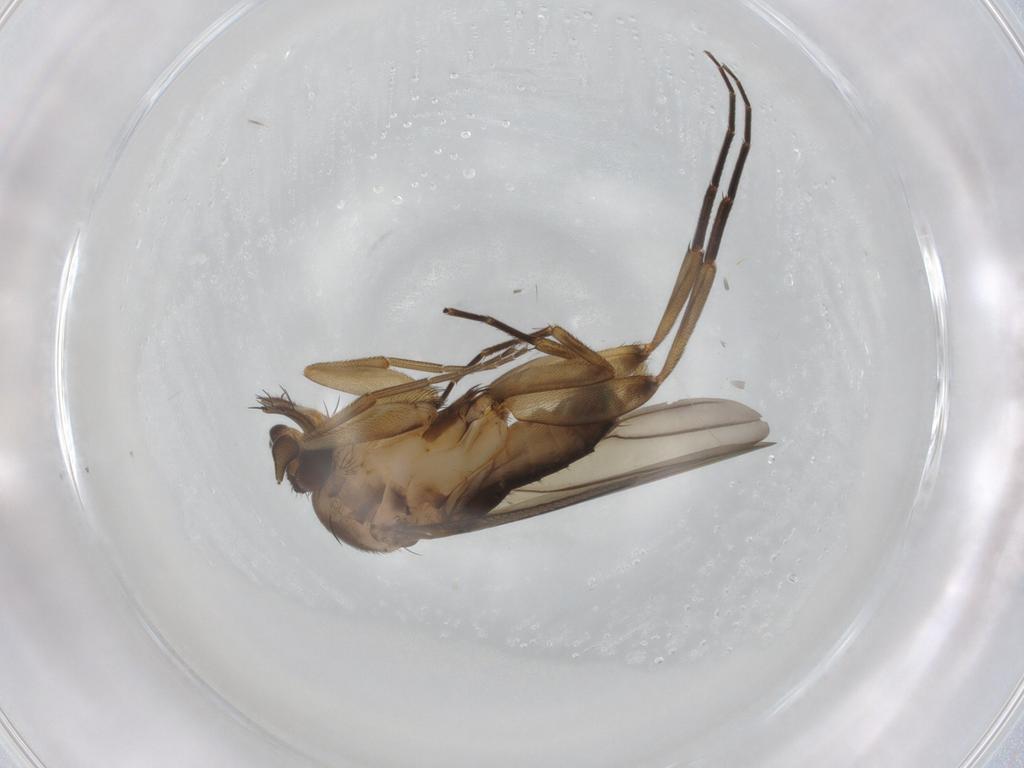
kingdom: Animalia
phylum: Arthropoda
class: Insecta
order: Diptera
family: Phoridae
